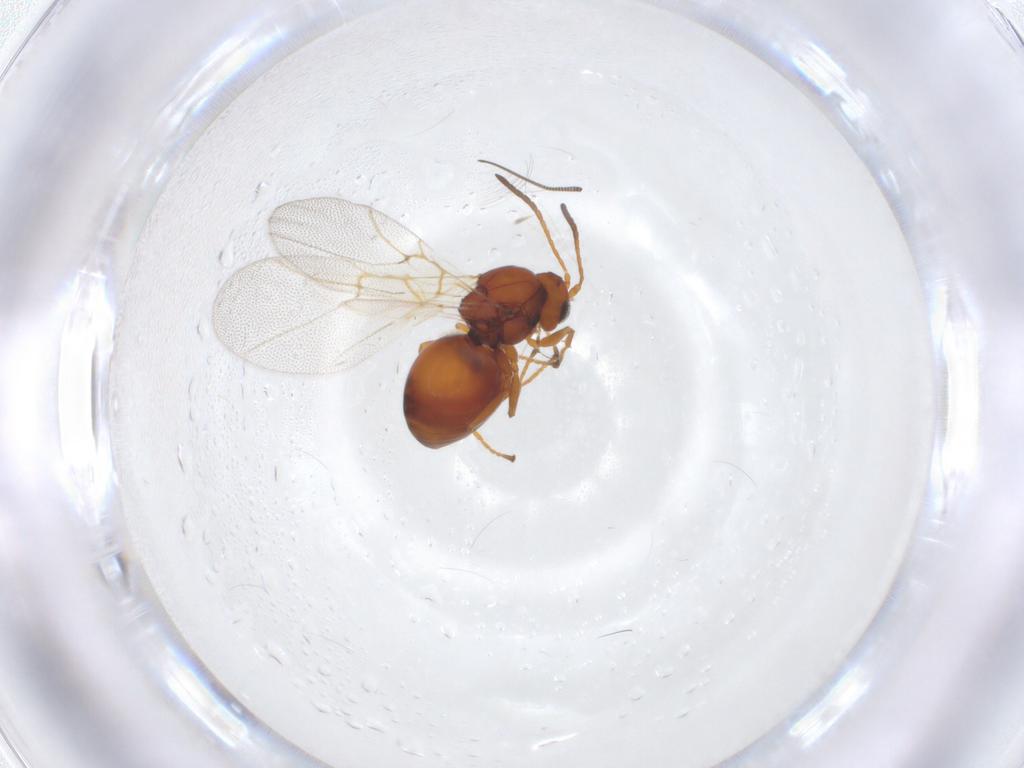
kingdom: Animalia
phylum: Arthropoda
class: Insecta
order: Hymenoptera
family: Cynipidae
